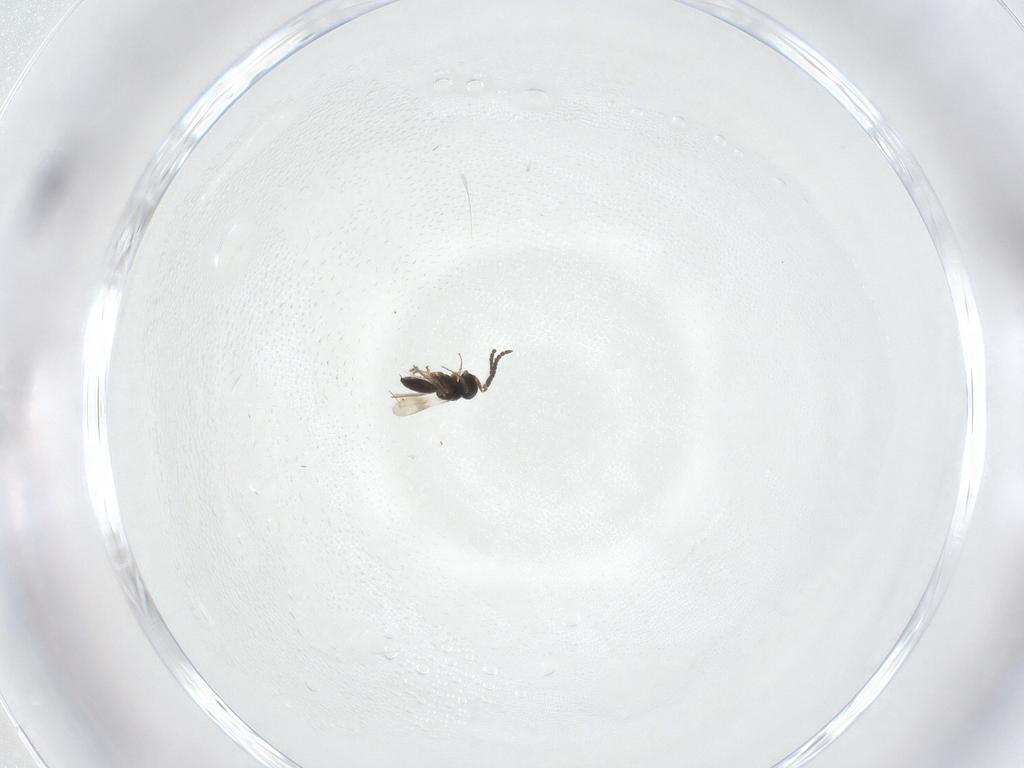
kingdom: Animalia
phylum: Arthropoda
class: Insecta
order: Hymenoptera
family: Scelionidae
